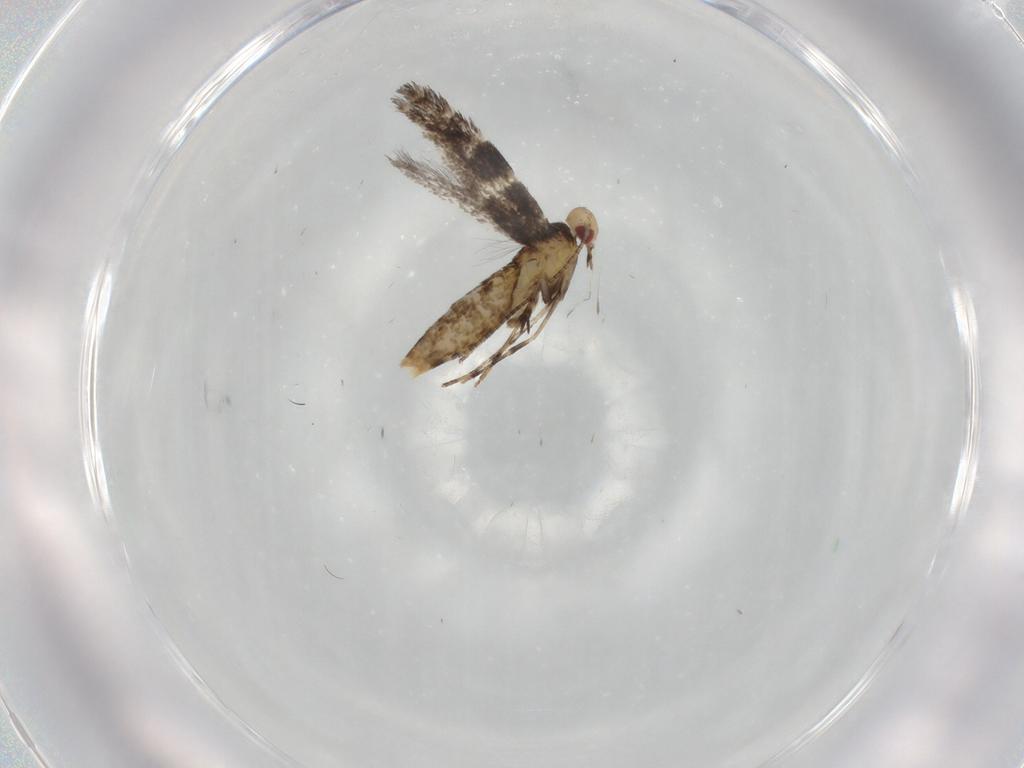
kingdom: Animalia
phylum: Arthropoda
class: Insecta
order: Lepidoptera
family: Gracillariidae
